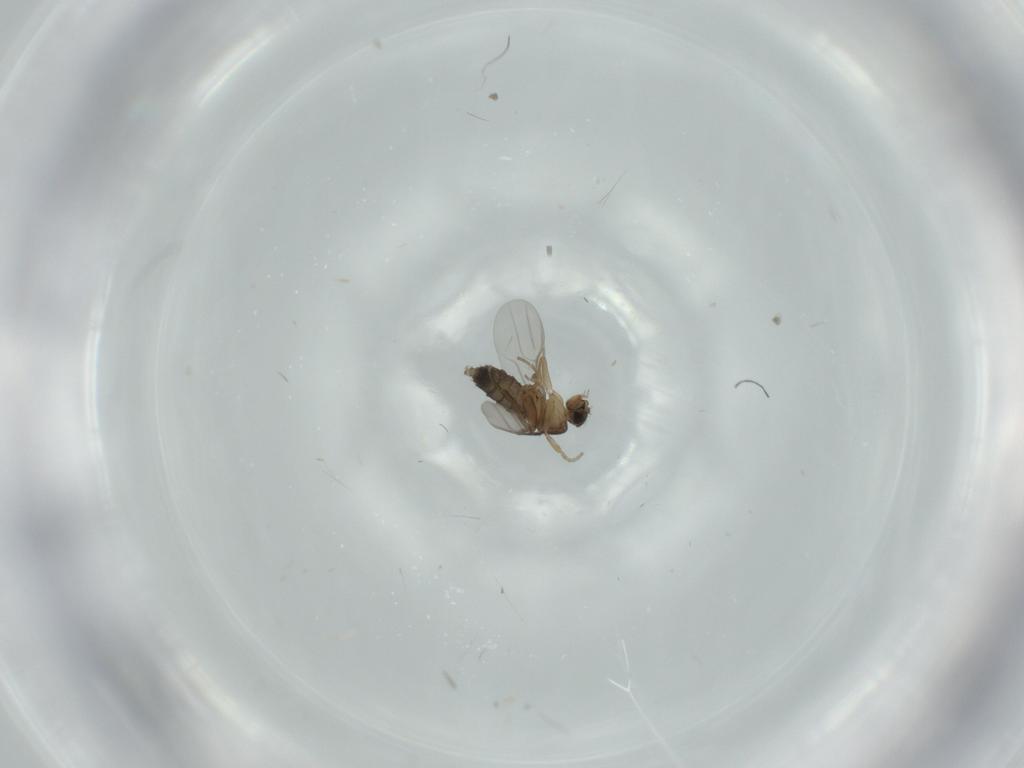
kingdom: Animalia
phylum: Arthropoda
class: Insecta
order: Diptera
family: Phoridae
